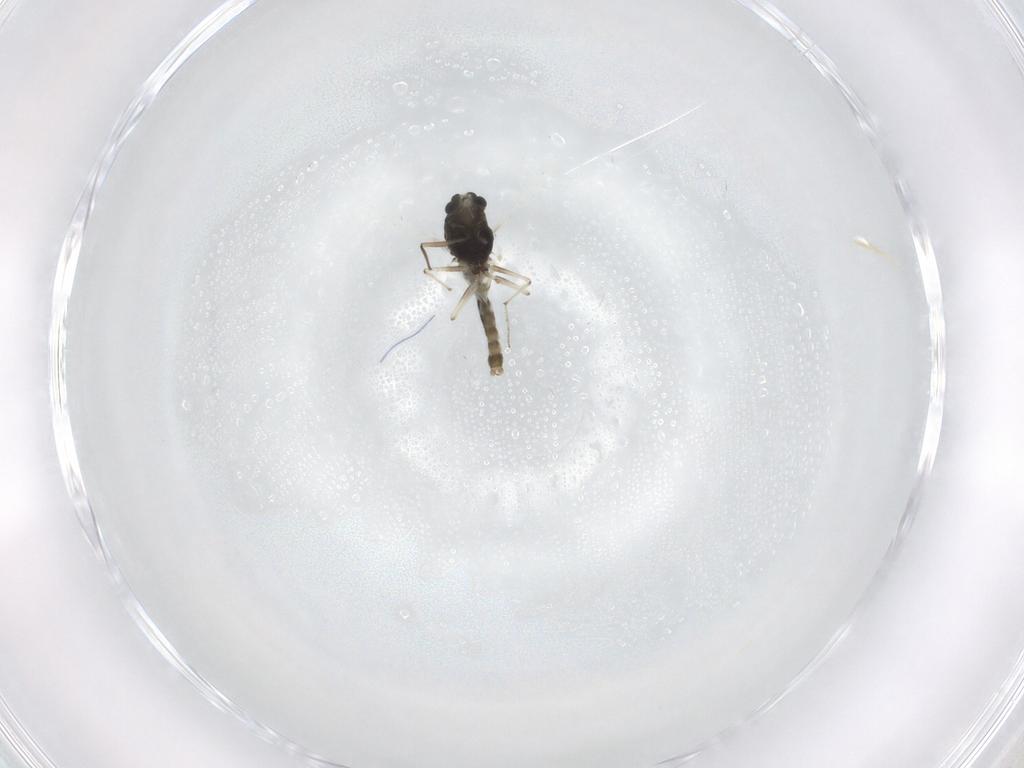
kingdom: Animalia
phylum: Arthropoda
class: Insecta
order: Diptera
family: Chironomidae
